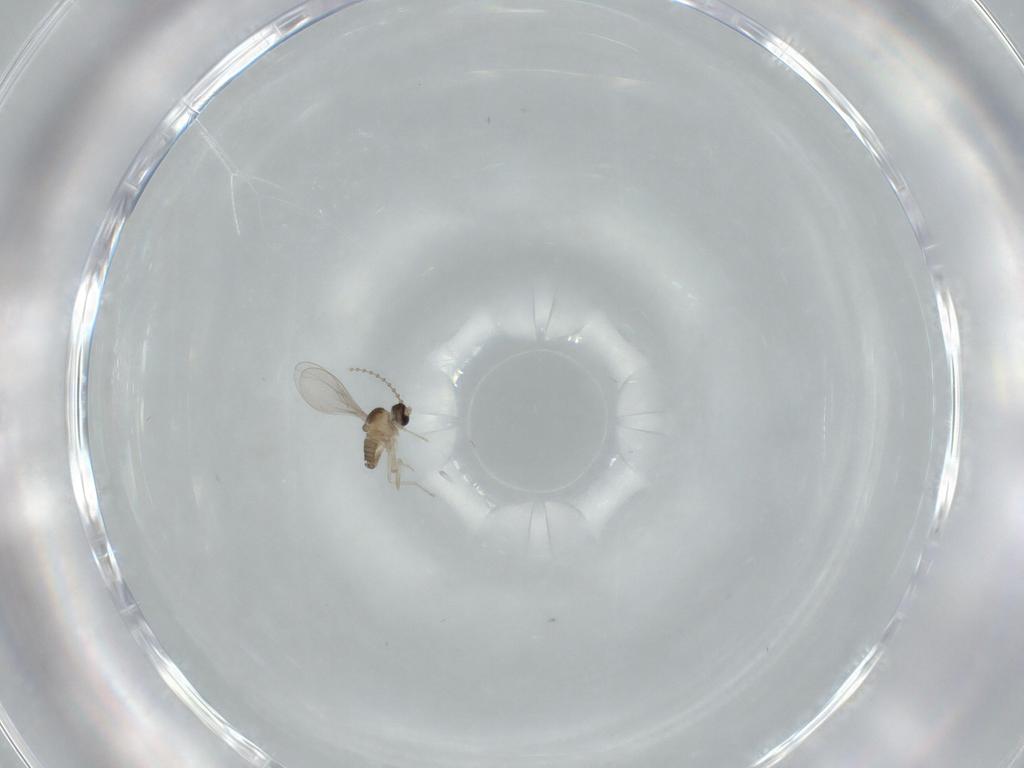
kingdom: Animalia
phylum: Arthropoda
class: Insecta
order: Diptera
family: Cecidomyiidae
